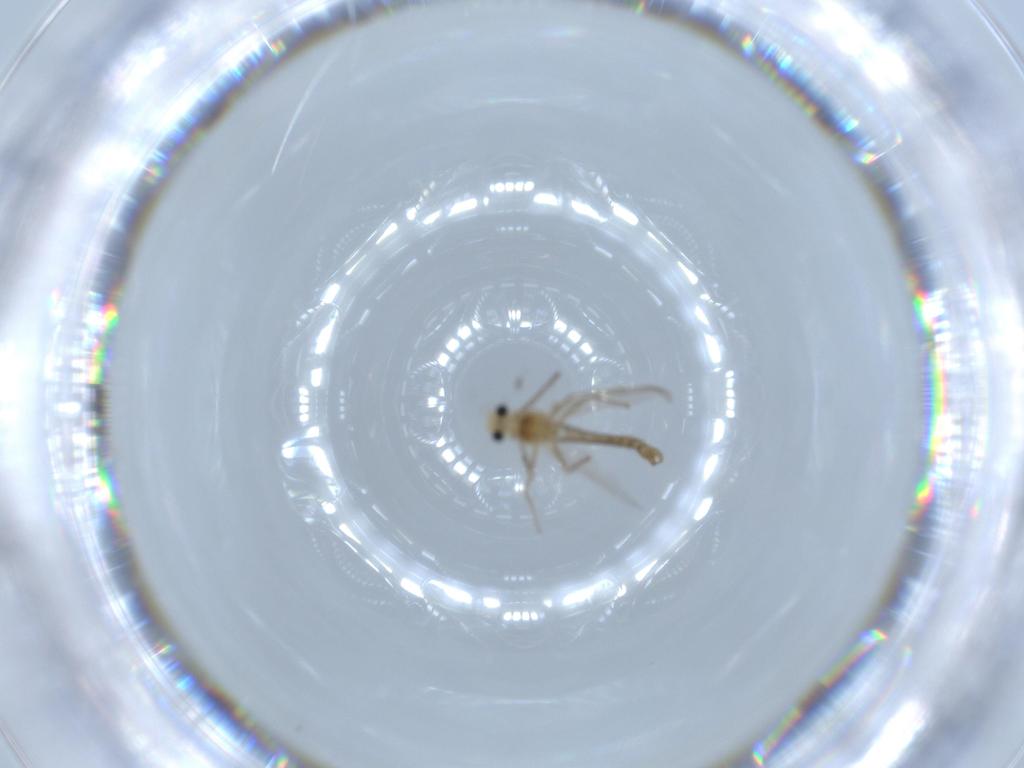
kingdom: Animalia
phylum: Arthropoda
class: Insecta
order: Diptera
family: Chironomidae
